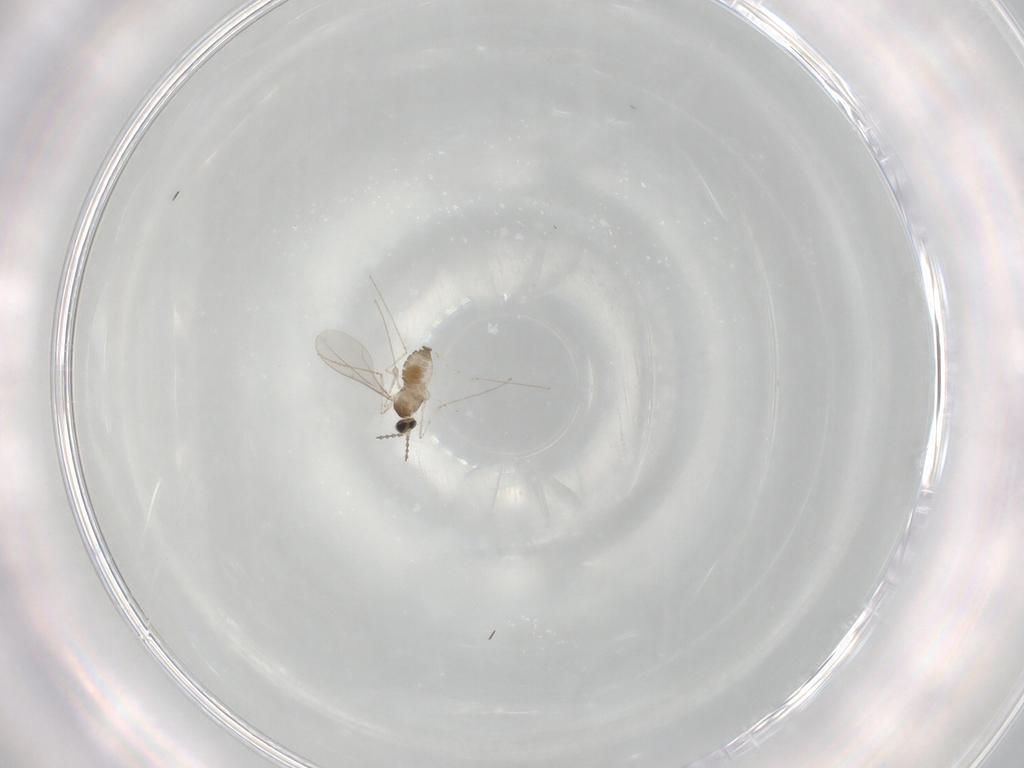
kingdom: Animalia
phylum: Arthropoda
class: Insecta
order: Diptera
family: Cecidomyiidae
